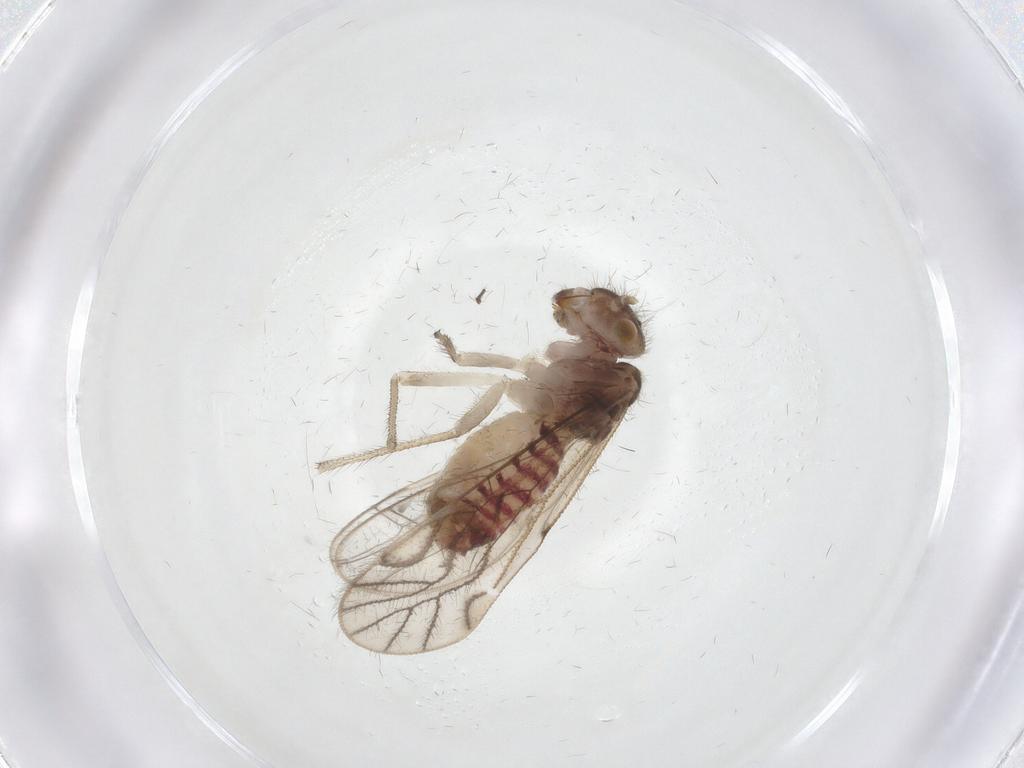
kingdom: Animalia
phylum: Arthropoda
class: Insecta
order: Psocodea
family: Philotarsidae
